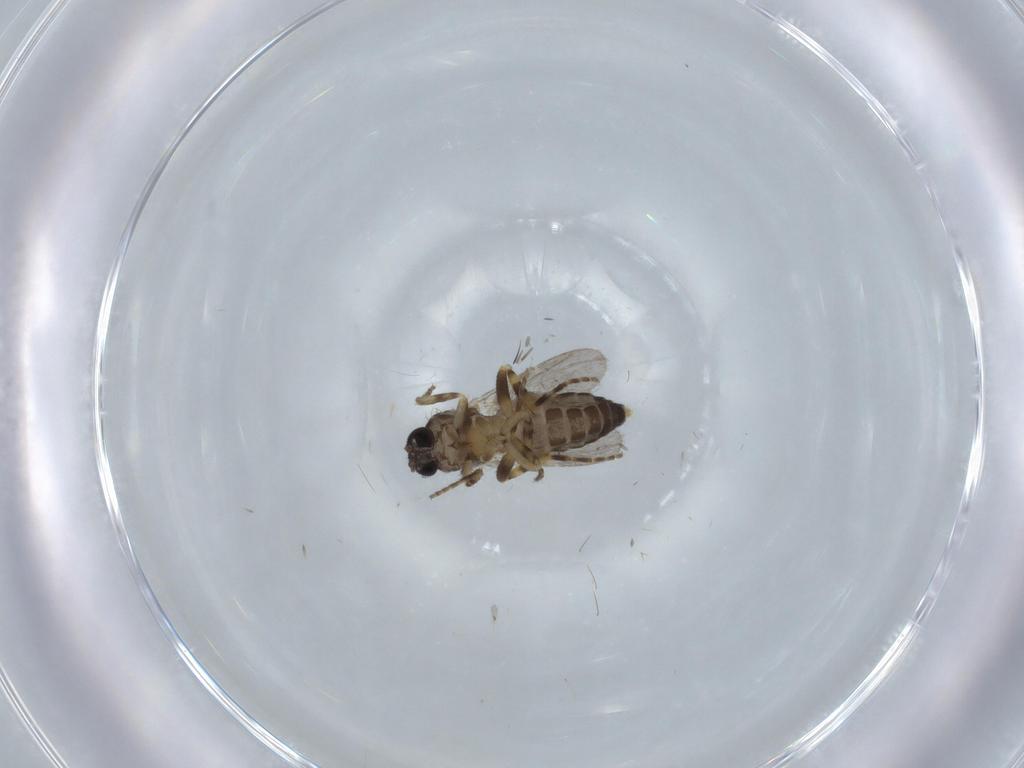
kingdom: Animalia
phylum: Arthropoda
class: Insecta
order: Diptera
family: Cecidomyiidae
